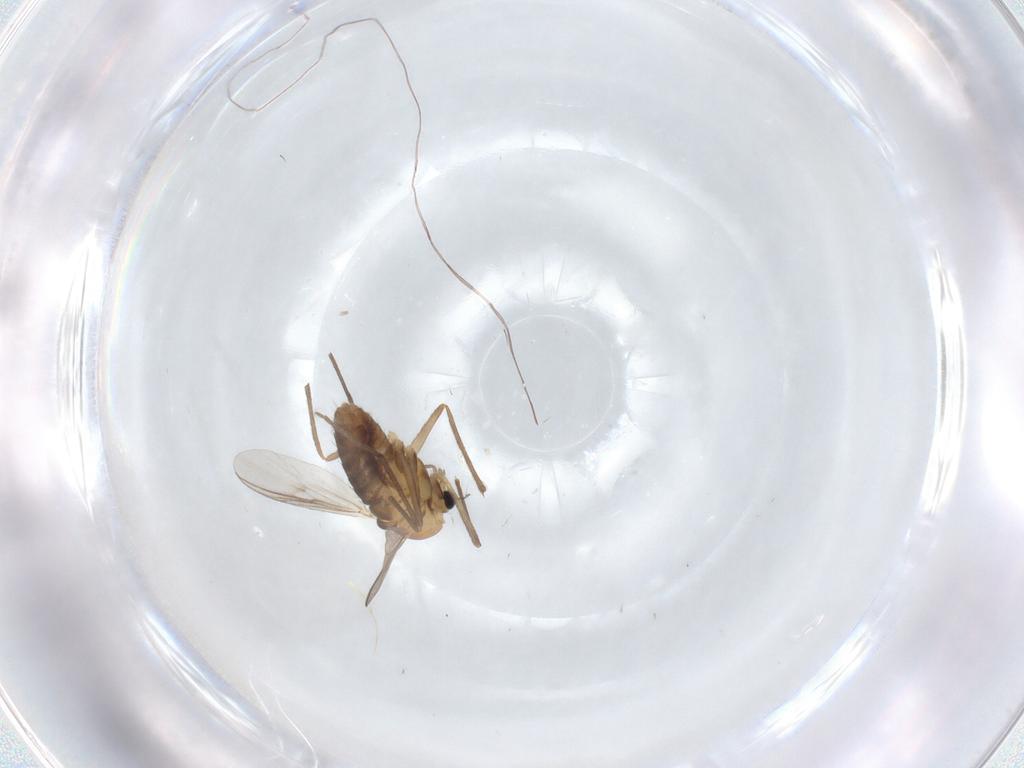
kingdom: Animalia
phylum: Arthropoda
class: Insecta
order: Diptera
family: Chironomidae
